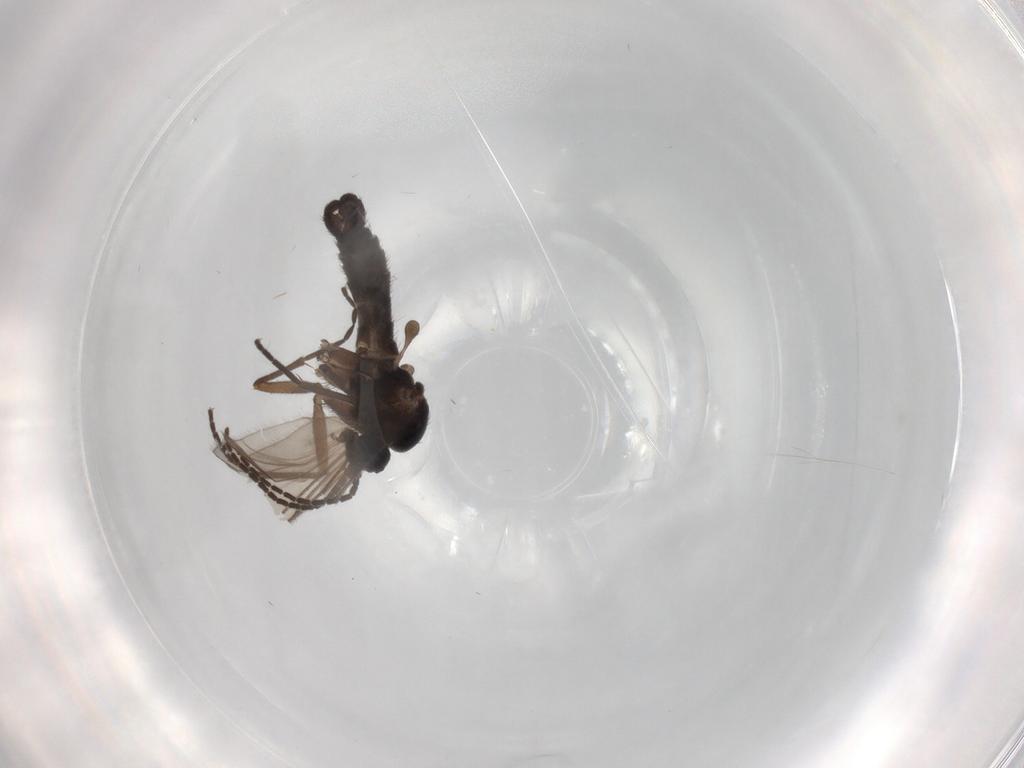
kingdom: Animalia
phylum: Arthropoda
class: Insecta
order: Diptera
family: Sciaridae
